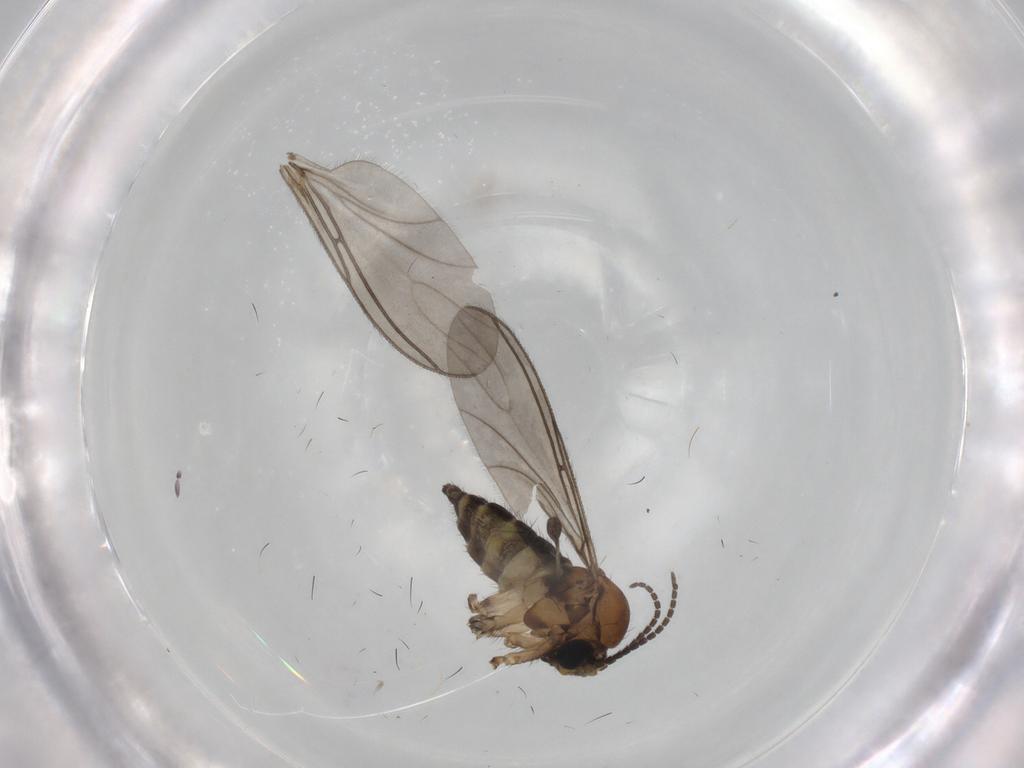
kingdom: Animalia
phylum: Arthropoda
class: Insecta
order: Diptera
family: Sciaridae
